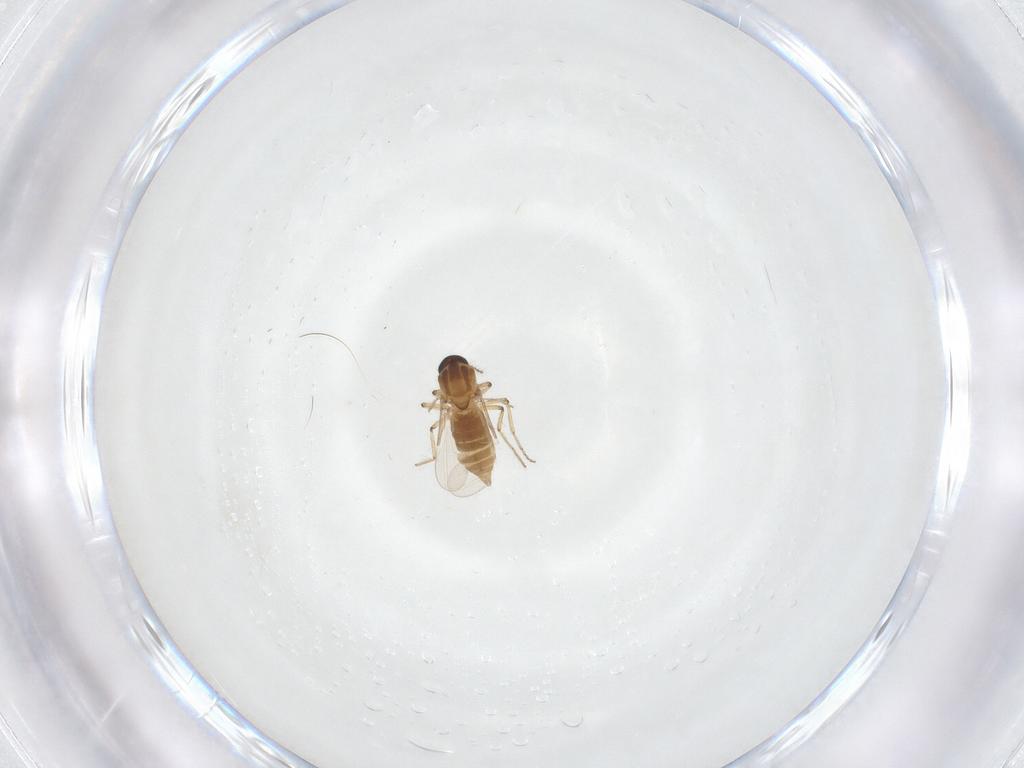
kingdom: Animalia
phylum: Arthropoda
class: Insecta
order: Diptera
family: Ceratopogonidae
